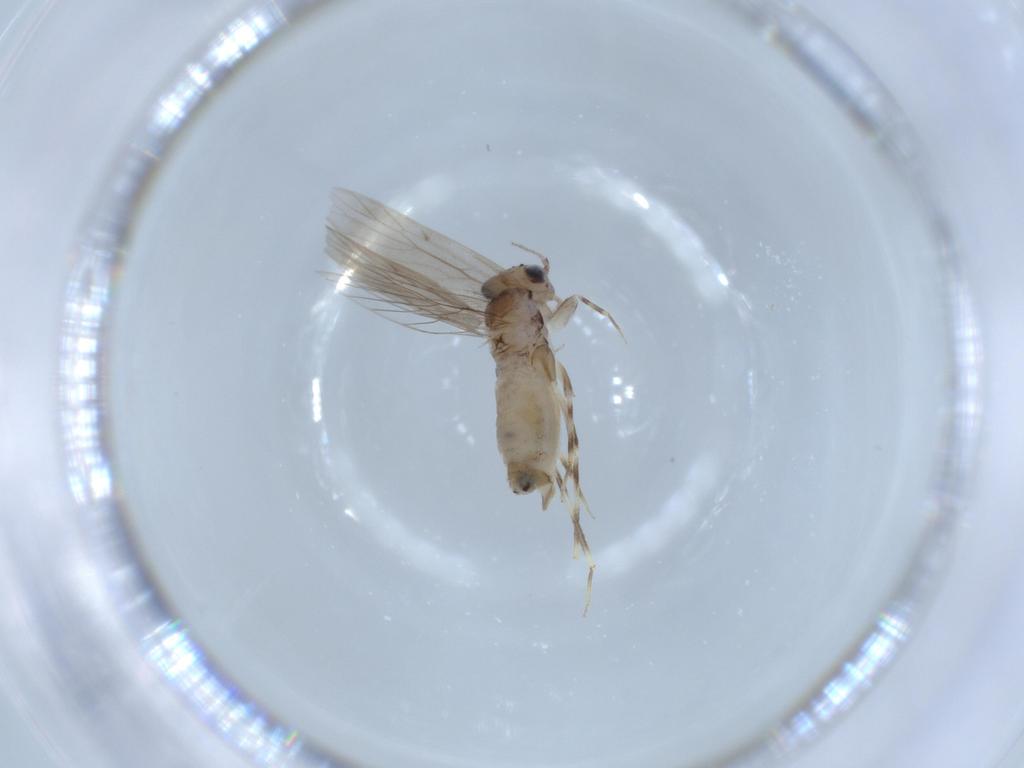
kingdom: Animalia
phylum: Arthropoda
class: Insecta
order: Psocodea
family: Lepidopsocidae
